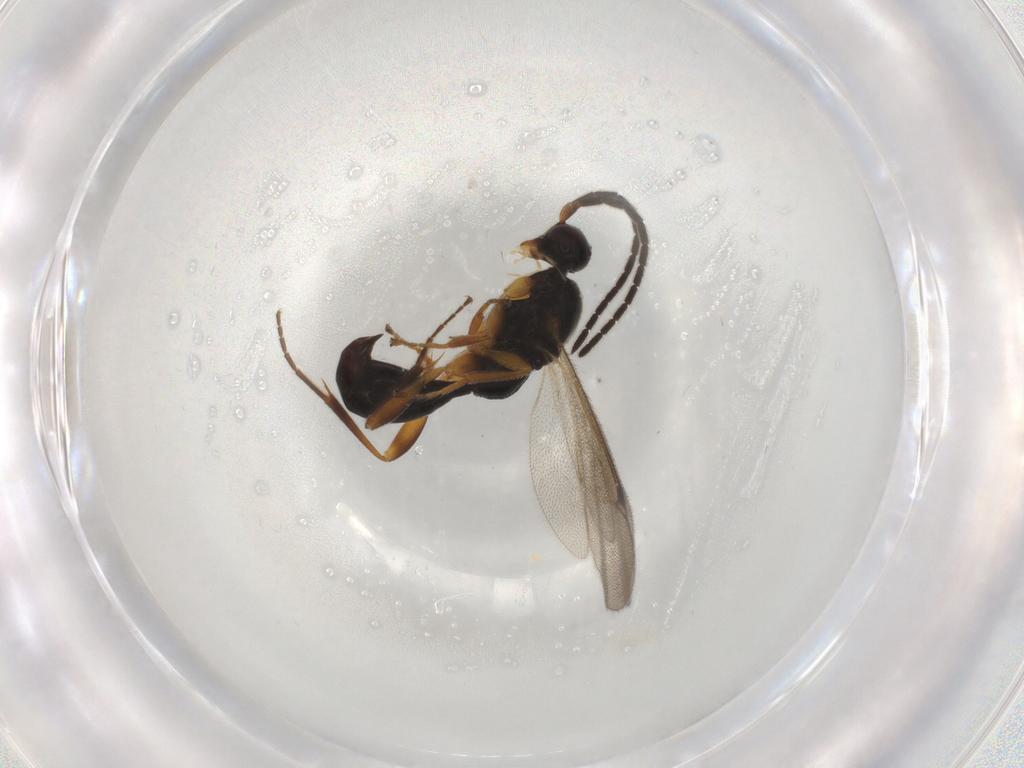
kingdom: Animalia
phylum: Arthropoda
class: Insecta
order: Hymenoptera
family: Proctotrupidae
